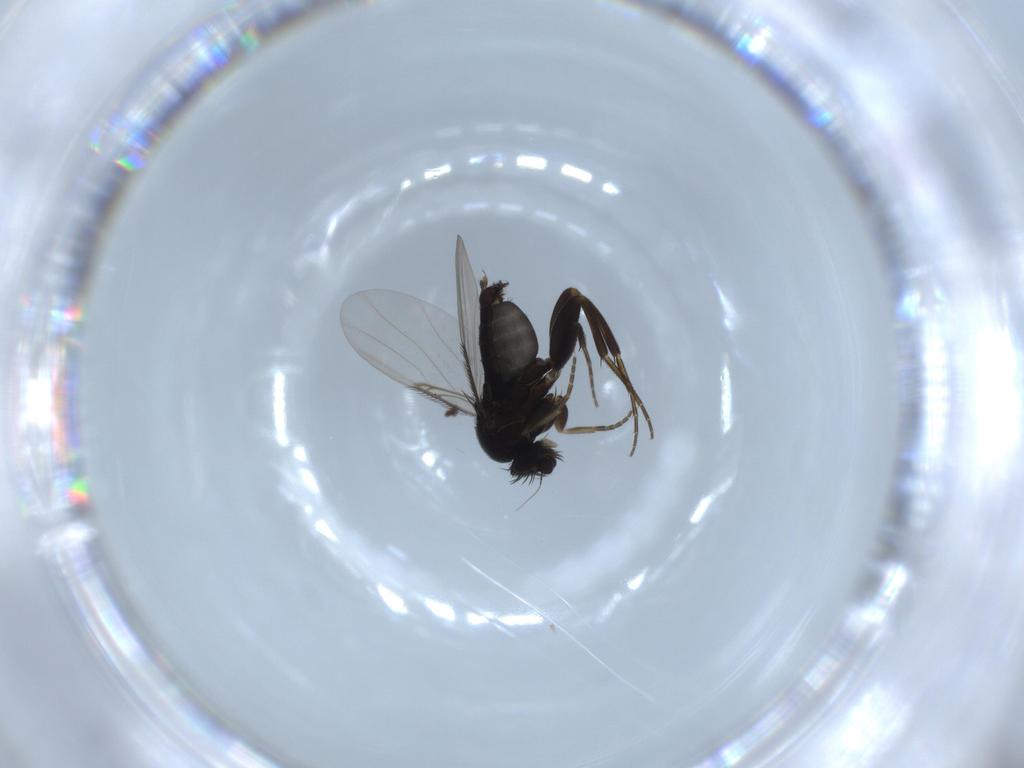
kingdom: Animalia
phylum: Arthropoda
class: Insecta
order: Diptera
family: Phoridae
